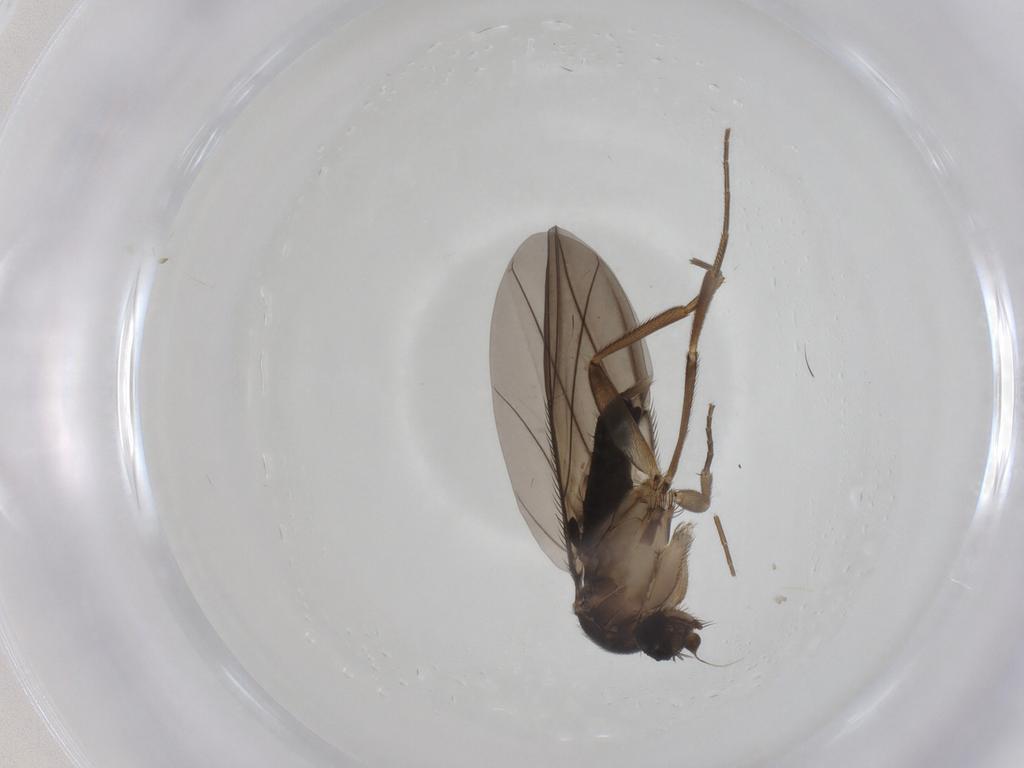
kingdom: Animalia
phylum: Arthropoda
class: Insecta
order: Diptera
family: Phoridae
